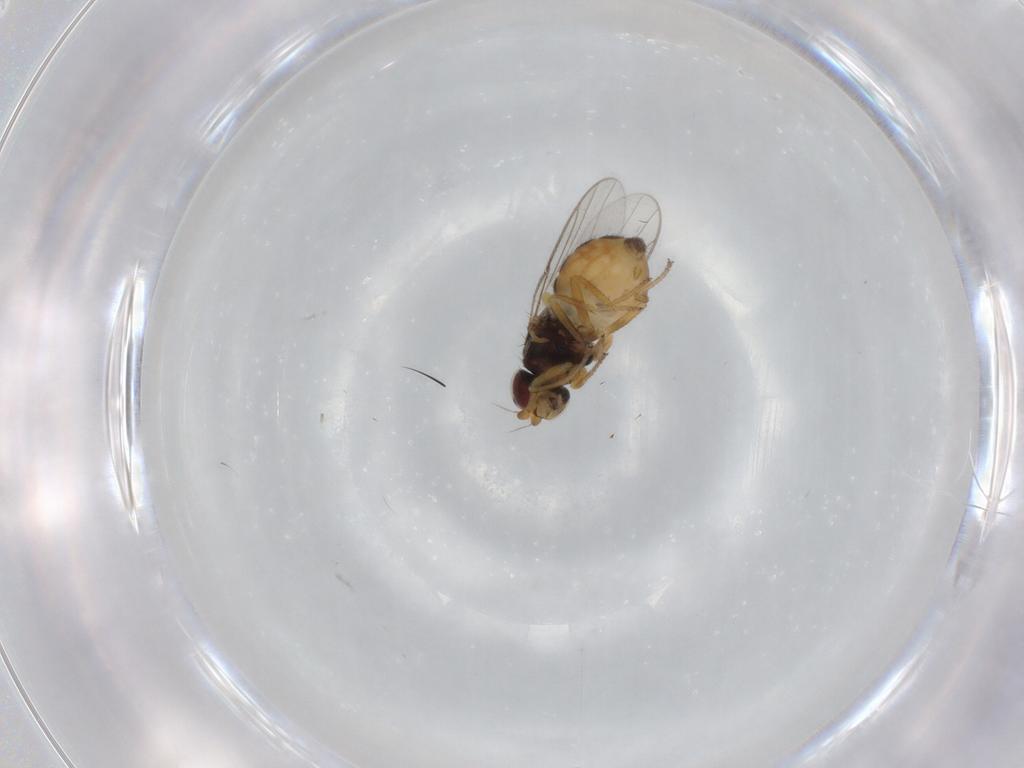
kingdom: Animalia
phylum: Arthropoda
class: Insecta
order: Diptera
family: Chloropidae
